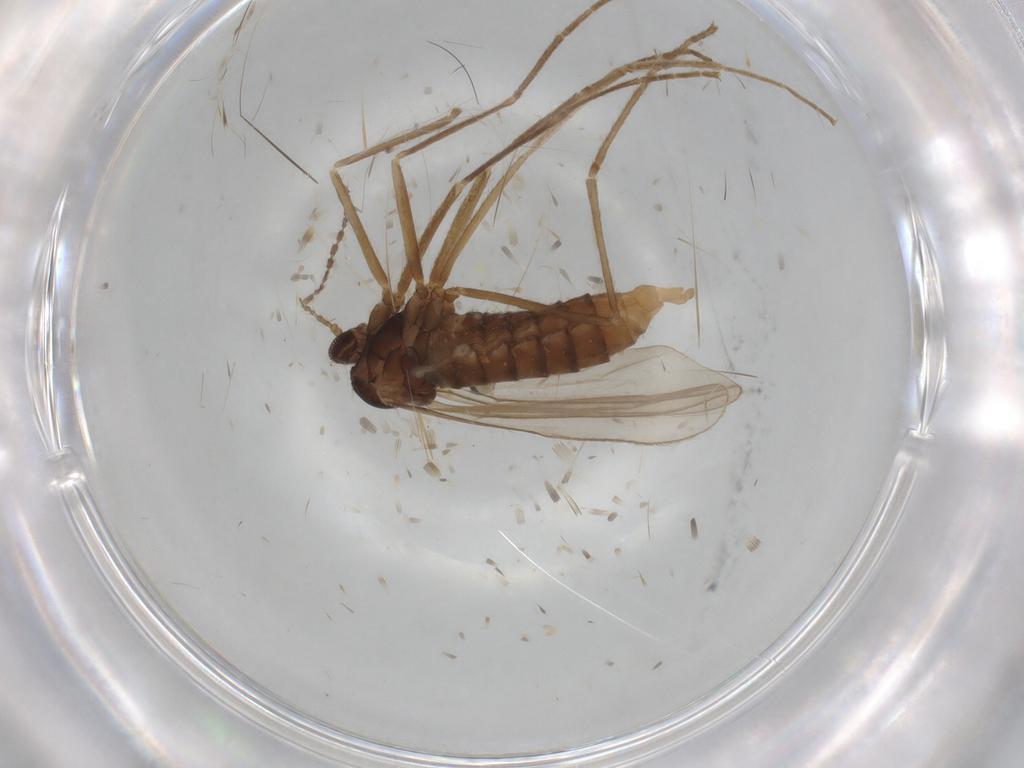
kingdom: Animalia
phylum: Arthropoda
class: Insecta
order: Diptera
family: Cecidomyiidae
